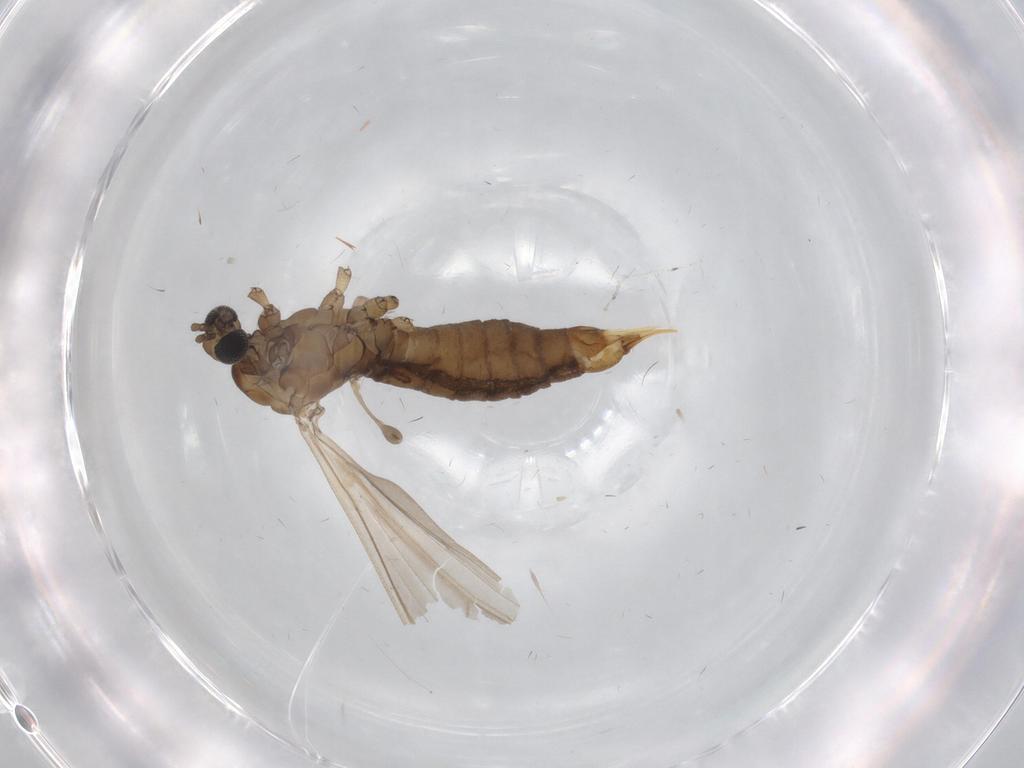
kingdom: Animalia
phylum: Arthropoda
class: Insecta
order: Diptera
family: Limoniidae
